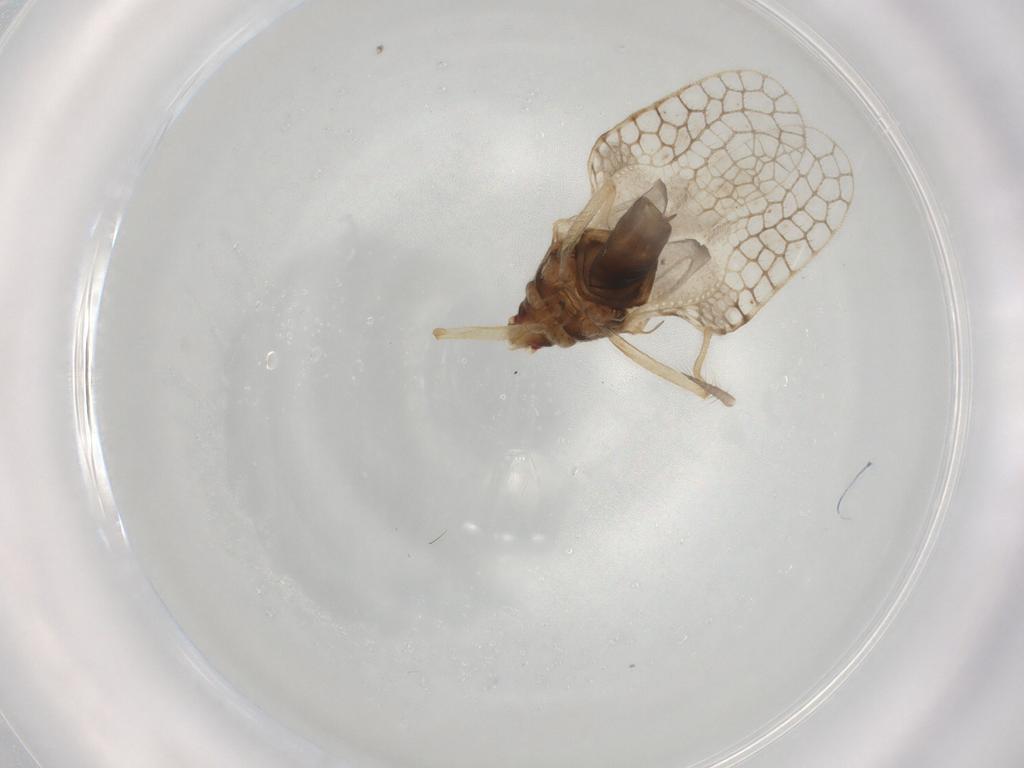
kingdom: Animalia
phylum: Arthropoda
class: Insecta
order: Hemiptera
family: Tingidae
